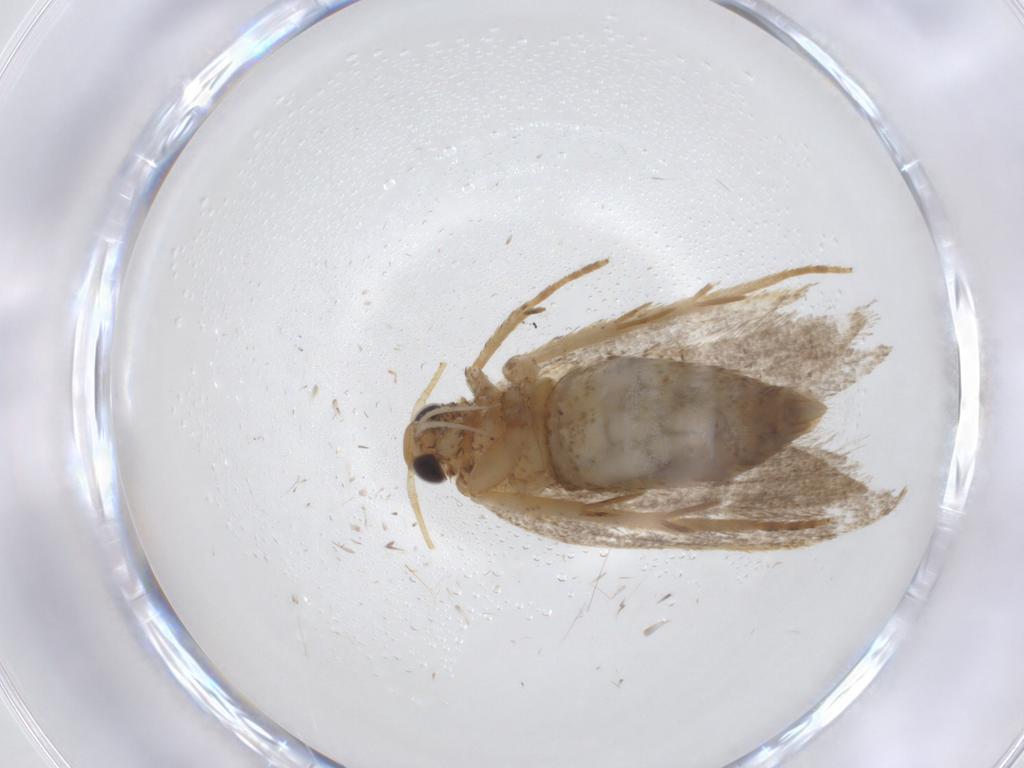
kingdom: Animalia
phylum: Arthropoda
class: Insecta
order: Lepidoptera
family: Oecophoridae
